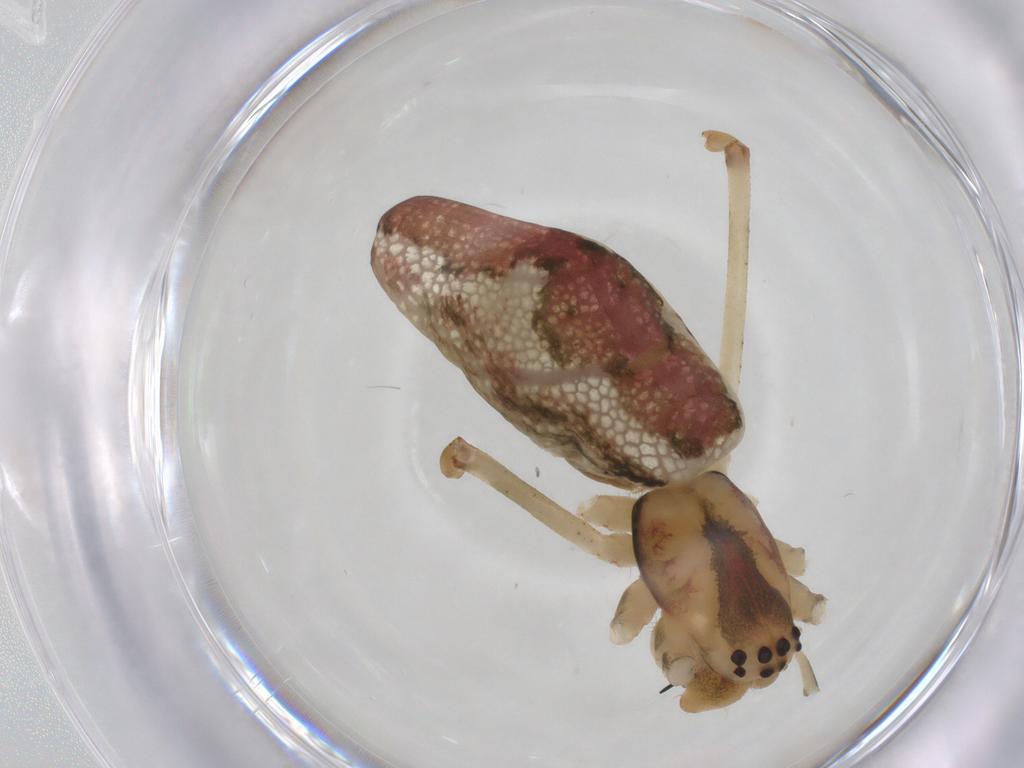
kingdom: Animalia
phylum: Arthropoda
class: Arachnida
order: Araneae
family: Tetragnathidae
